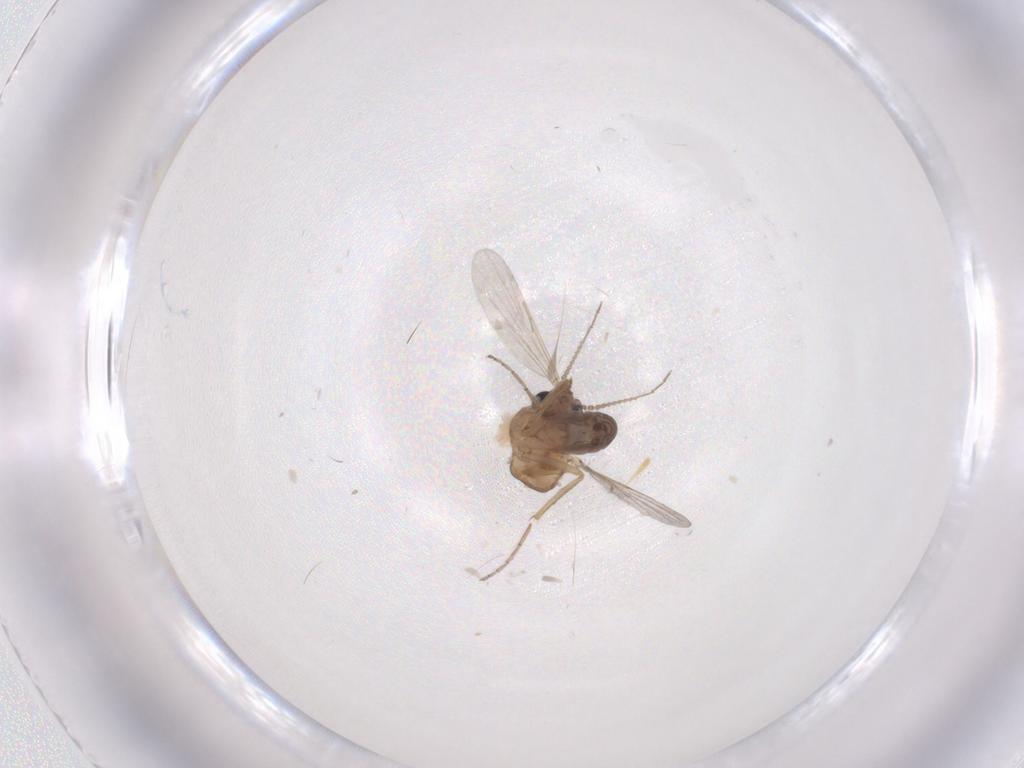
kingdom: Animalia
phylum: Arthropoda
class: Insecta
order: Diptera
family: Ceratopogonidae
